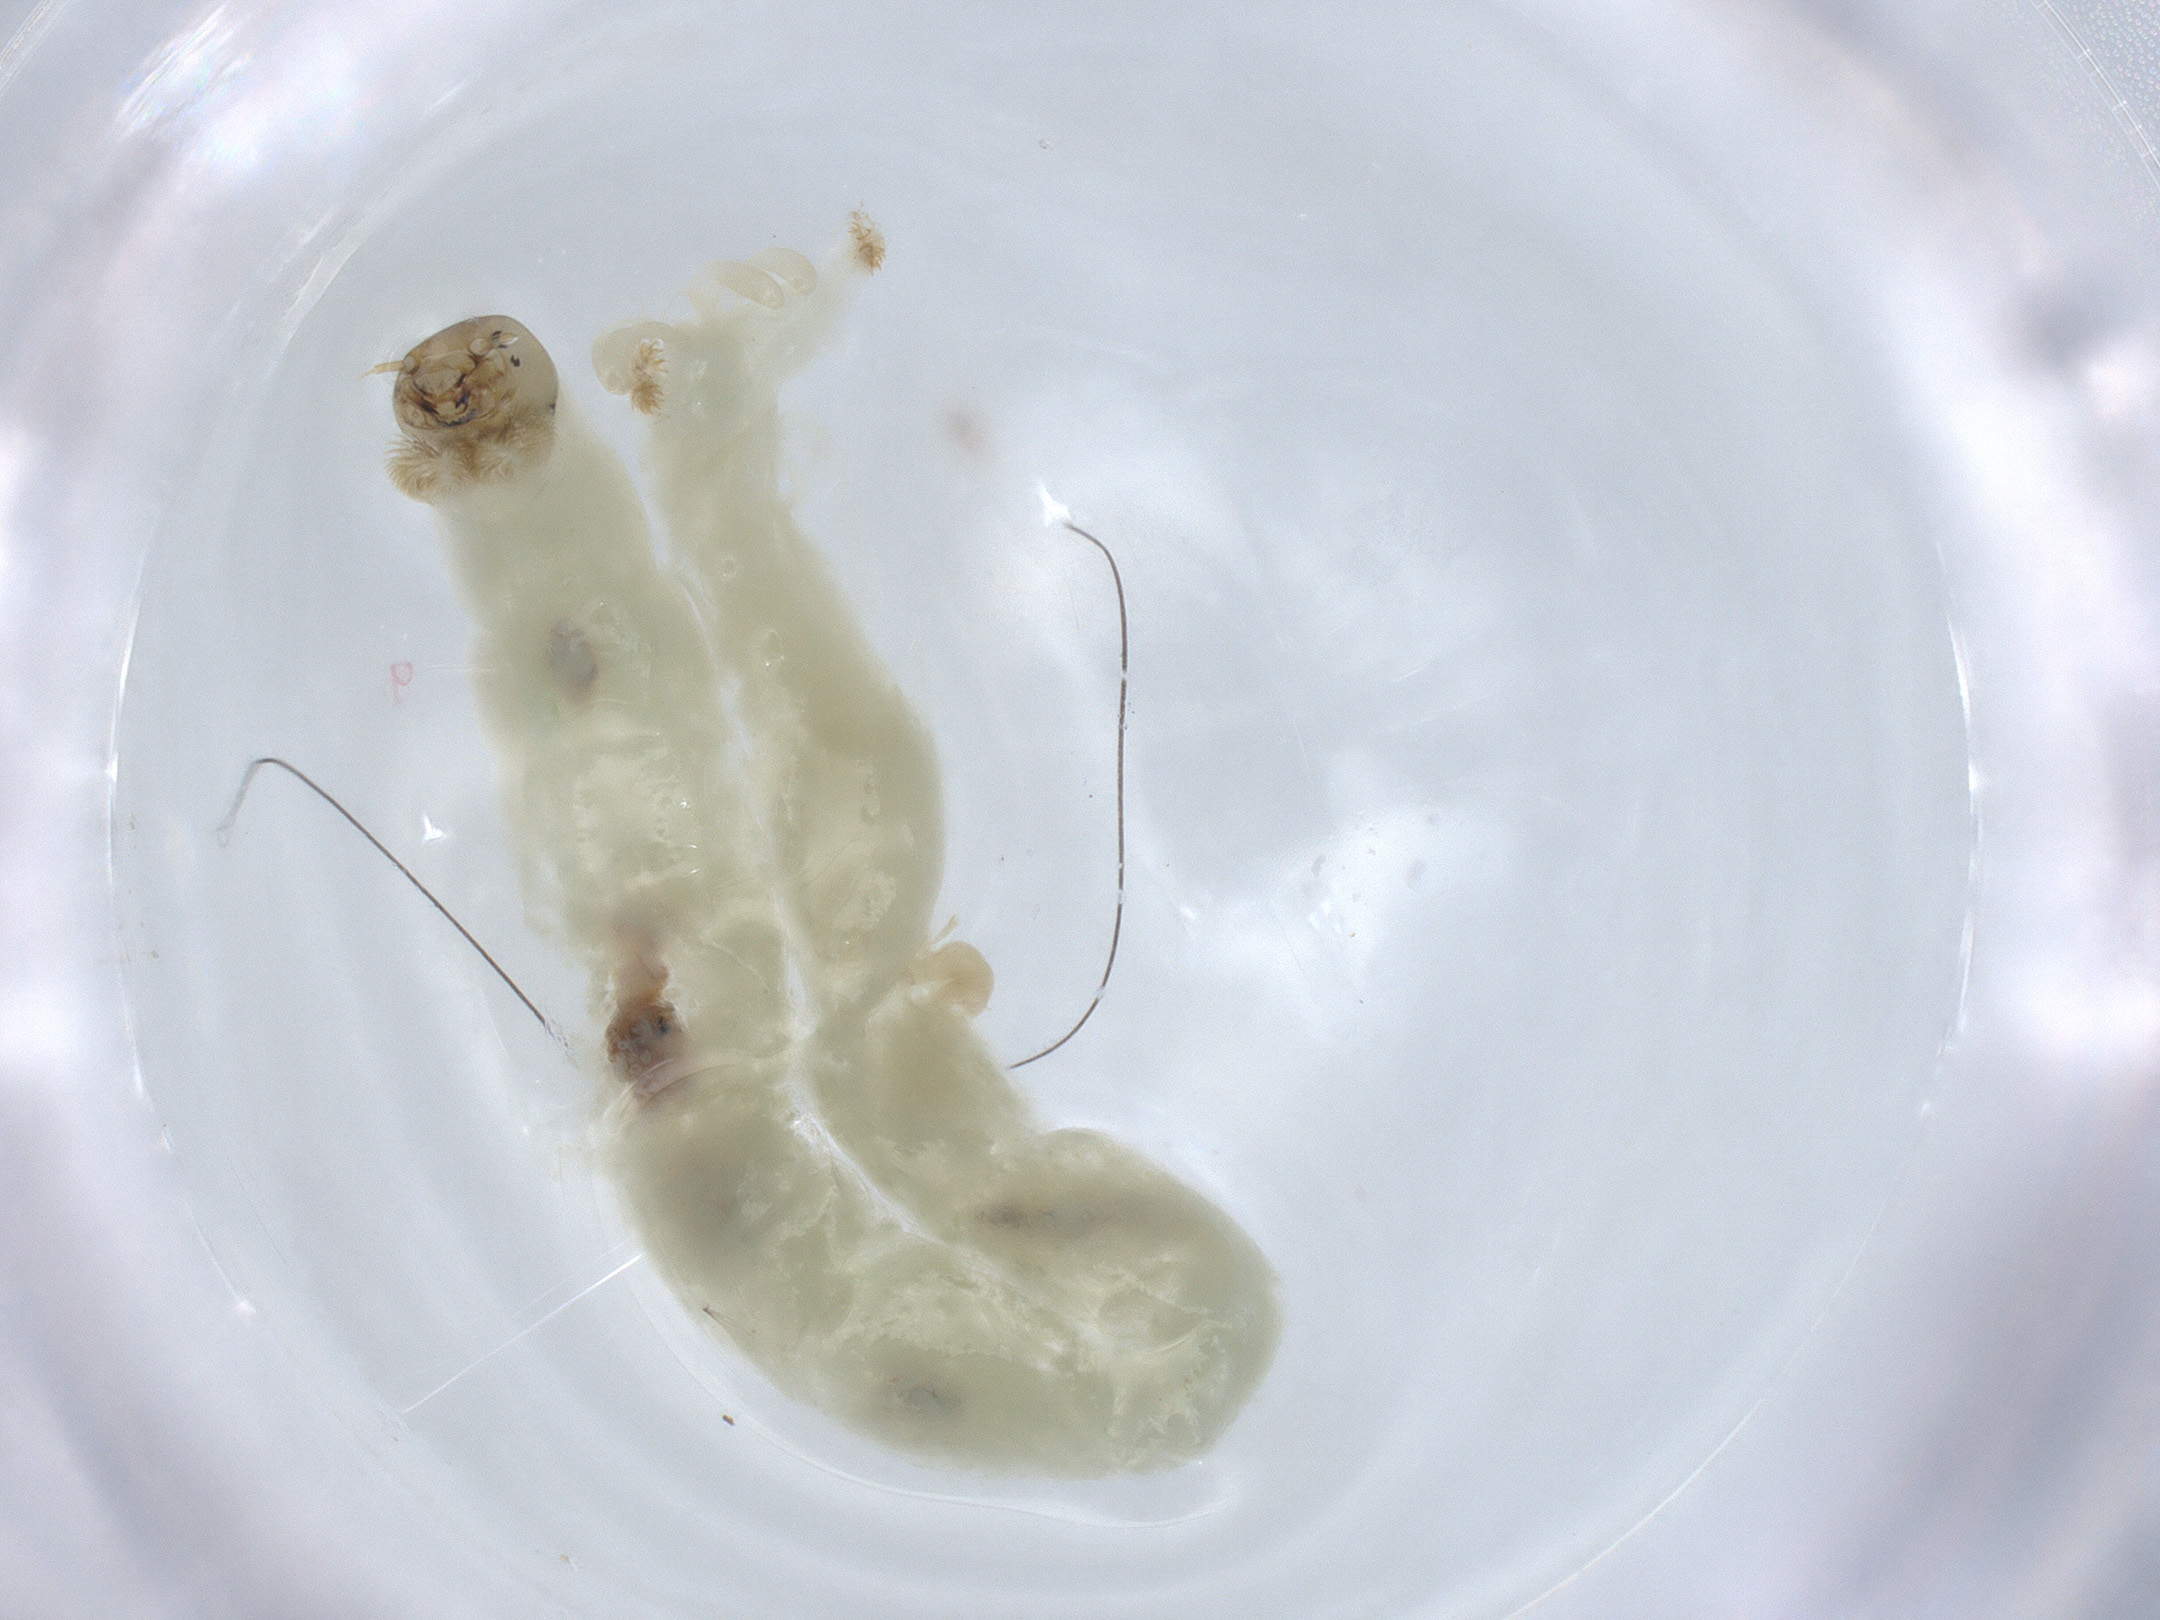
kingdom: Animalia
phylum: Arthropoda
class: Insecta
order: Diptera
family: Chironomidae
